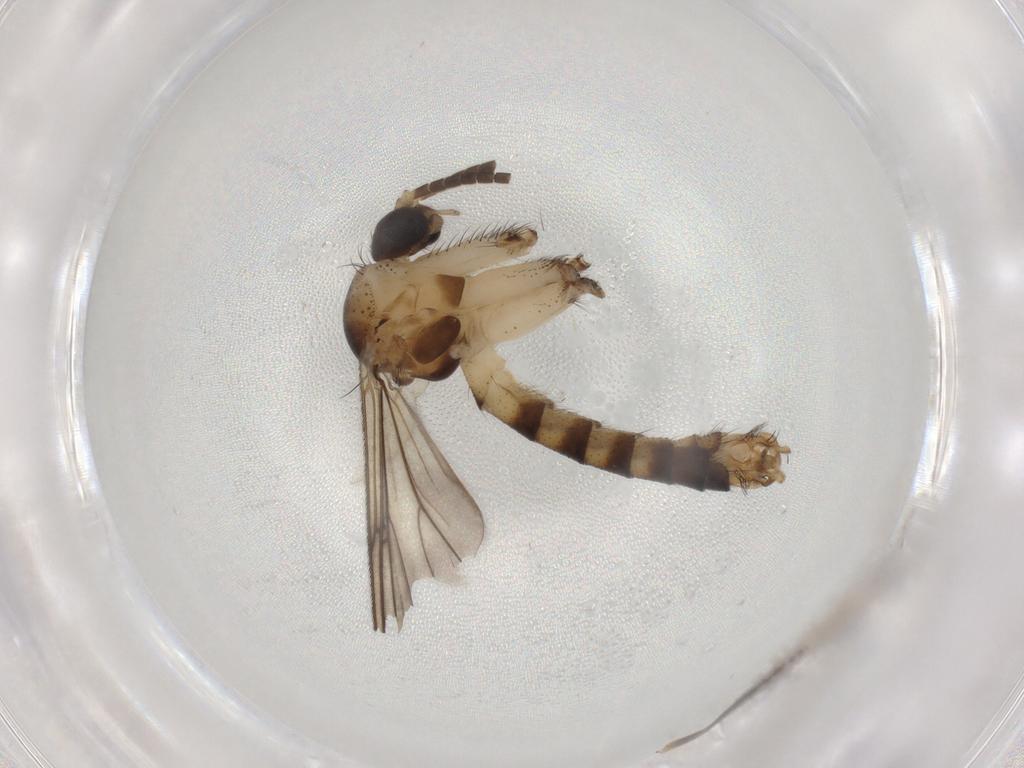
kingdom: Animalia
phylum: Arthropoda
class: Insecta
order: Diptera
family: Mycetophilidae
